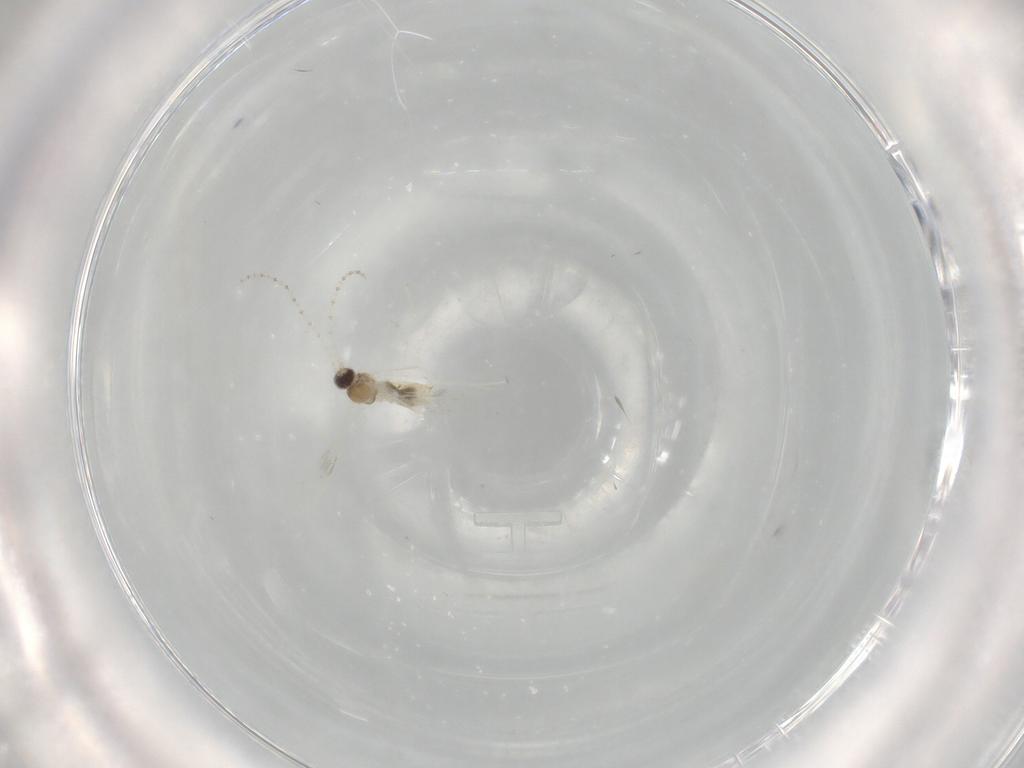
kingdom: Animalia
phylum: Arthropoda
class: Insecta
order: Diptera
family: Cecidomyiidae
